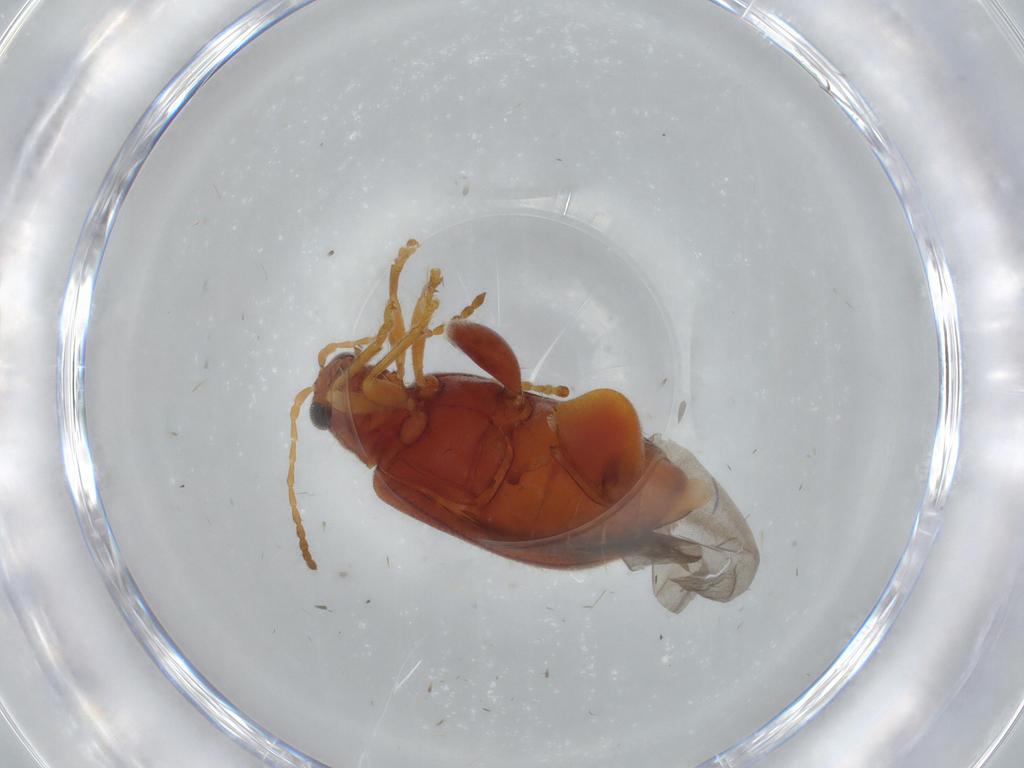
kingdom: Animalia
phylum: Arthropoda
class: Insecta
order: Coleoptera
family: Chrysomelidae
